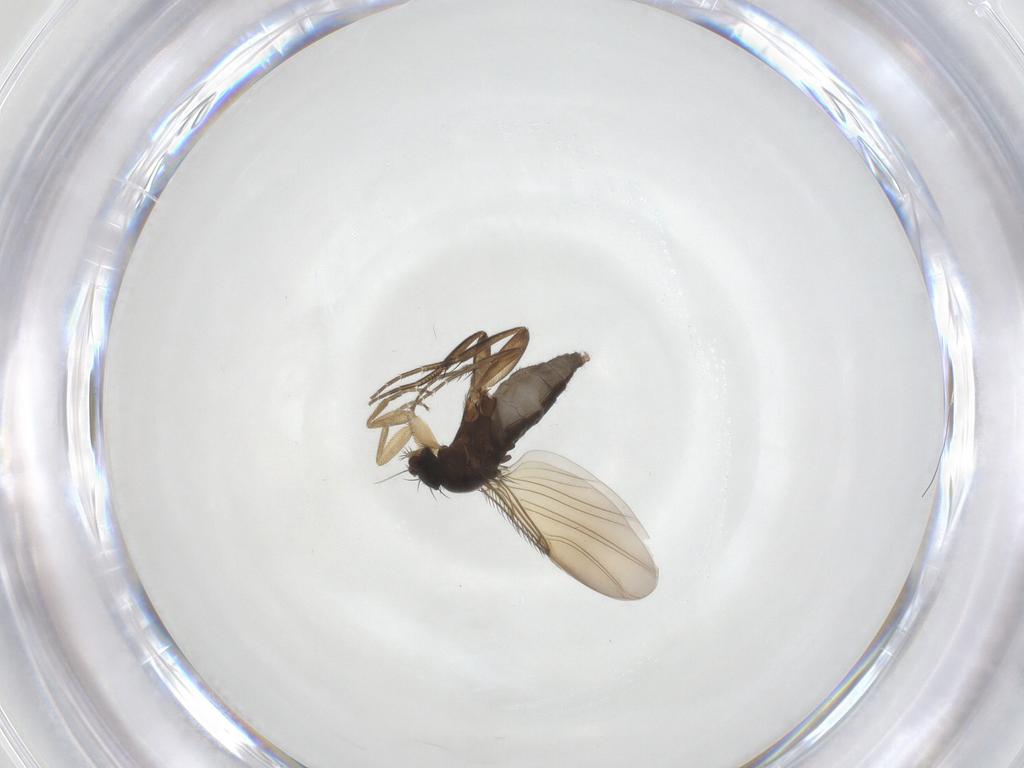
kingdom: Animalia
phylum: Arthropoda
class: Insecta
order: Diptera
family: Phoridae
